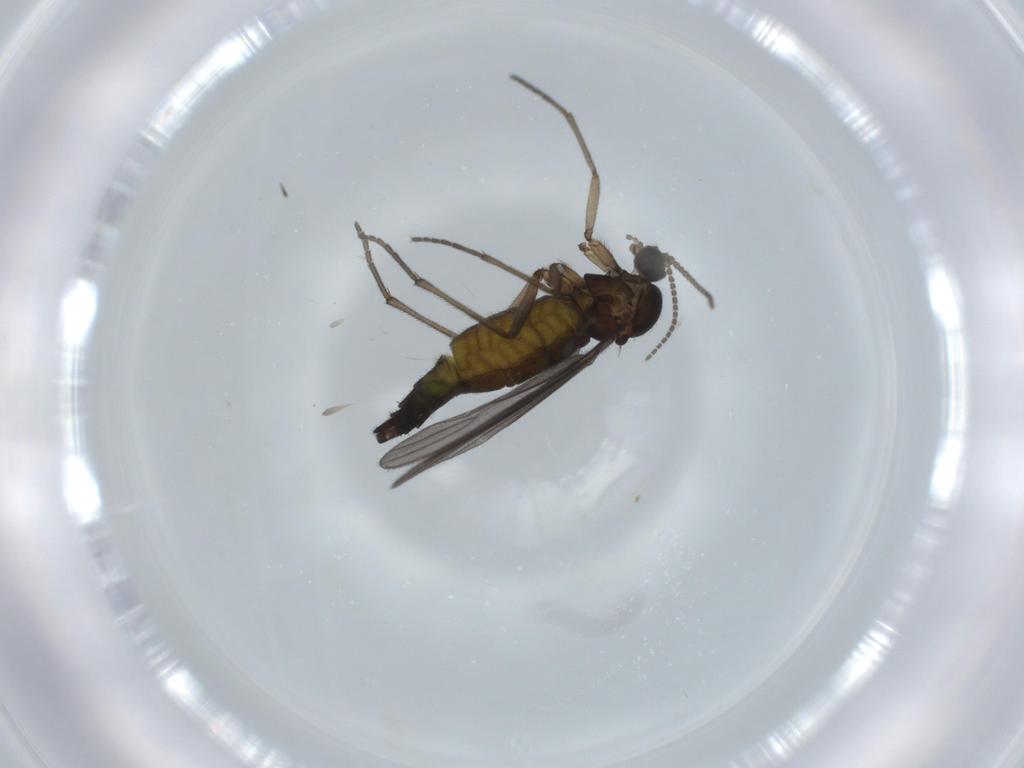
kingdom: Animalia
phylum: Arthropoda
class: Insecta
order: Diptera
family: Sciaridae
